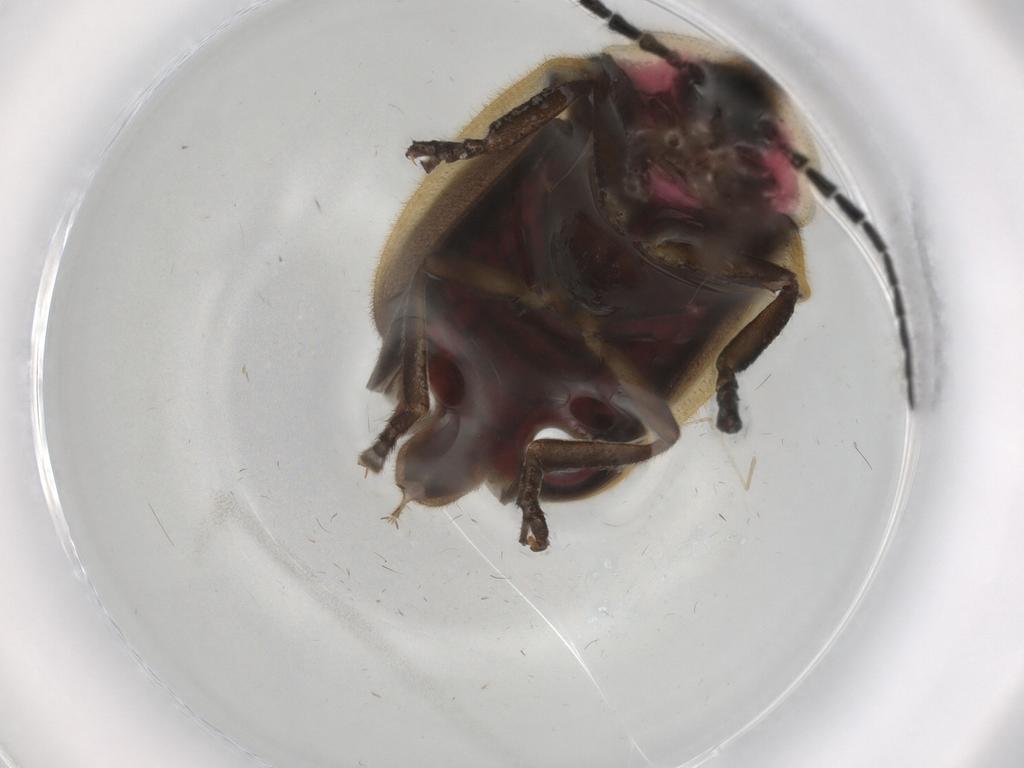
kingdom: Animalia
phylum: Arthropoda
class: Insecta
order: Coleoptera
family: Lampyridae
